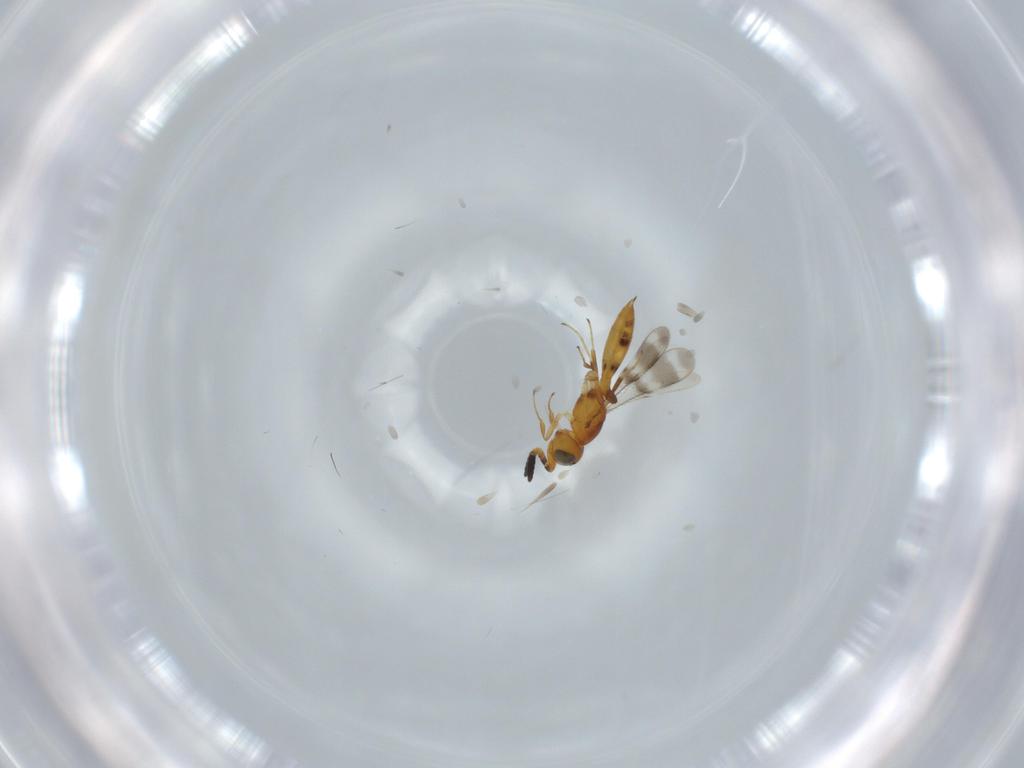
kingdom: Animalia
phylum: Arthropoda
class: Insecta
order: Hymenoptera
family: Scelionidae
